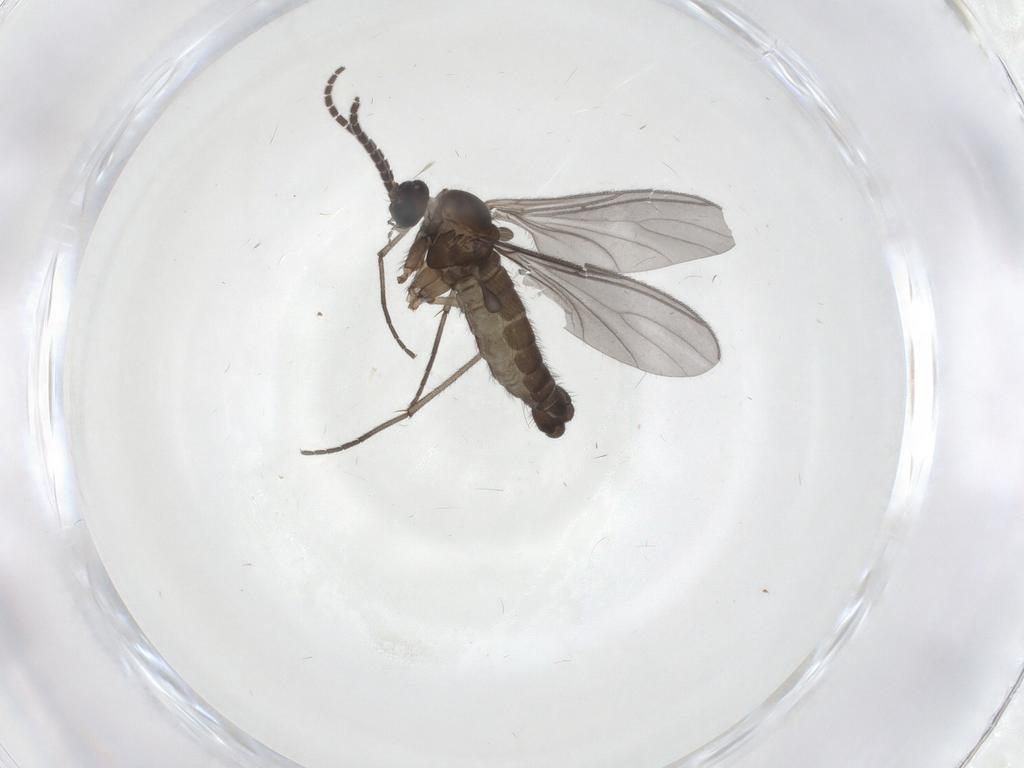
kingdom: Animalia
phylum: Arthropoda
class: Insecta
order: Diptera
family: Sciaridae
